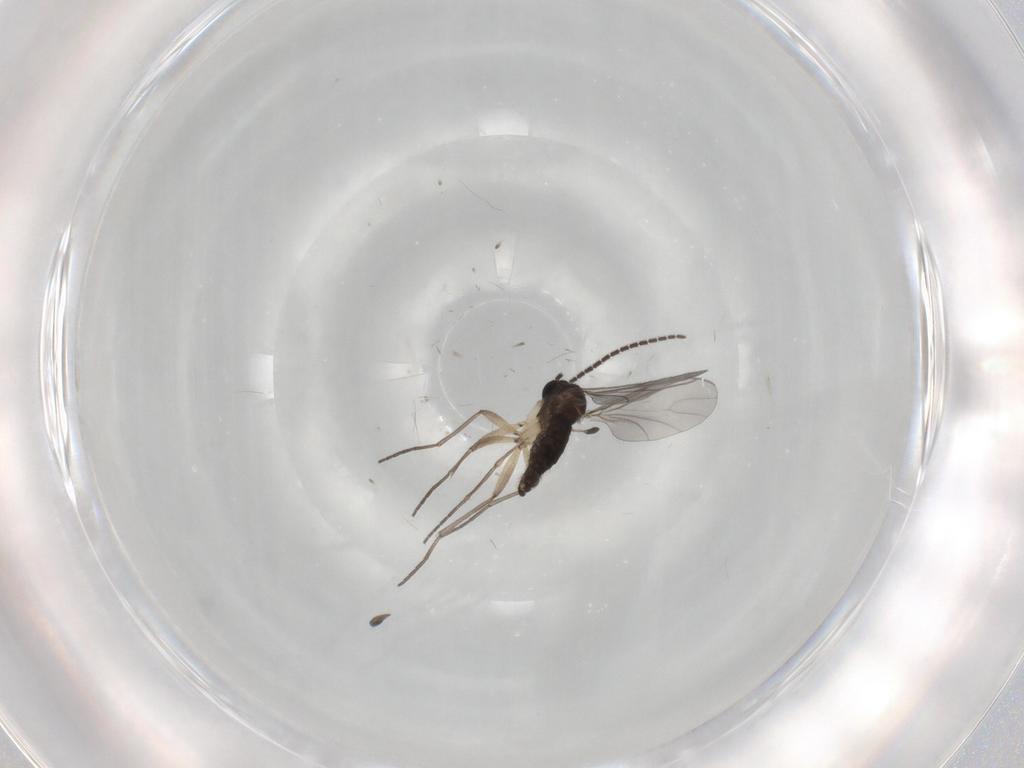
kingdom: Animalia
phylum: Arthropoda
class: Insecta
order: Diptera
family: Sciaridae
